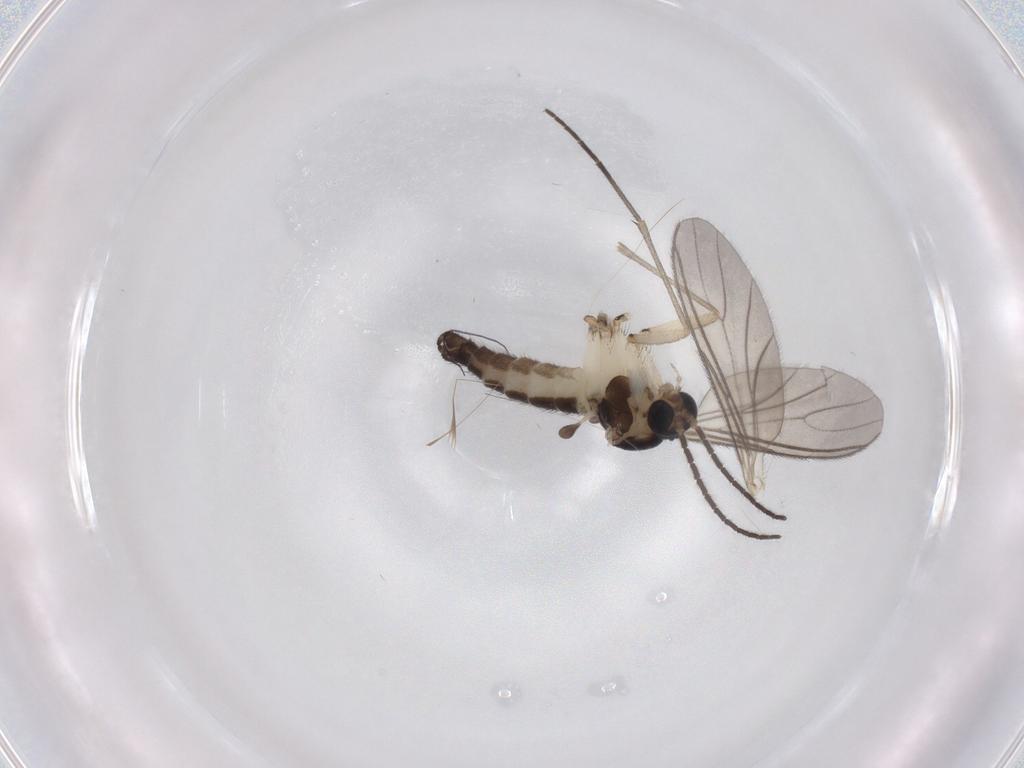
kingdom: Animalia
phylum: Arthropoda
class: Insecta
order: Diptera
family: Sciaridae
